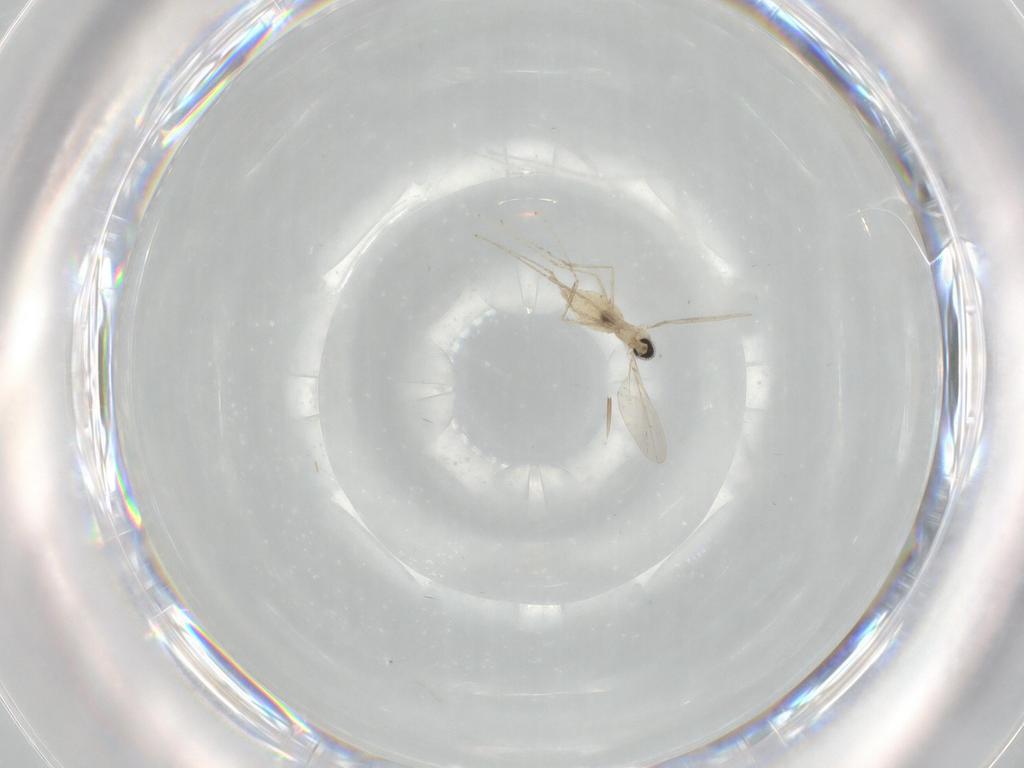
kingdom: Animalia
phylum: Arthropoda
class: Insecta
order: Diptera
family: Cecidomyiidae
